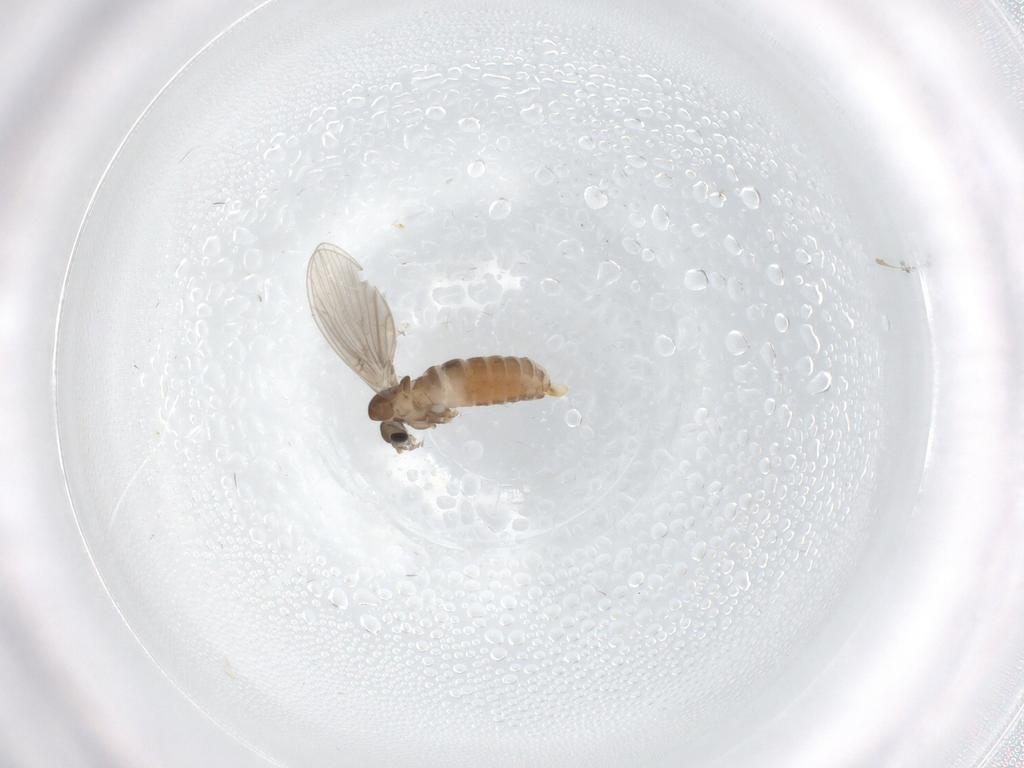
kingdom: Animalia
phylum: Arthropoda
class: Insecta
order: Diptera
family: Psychodidae
